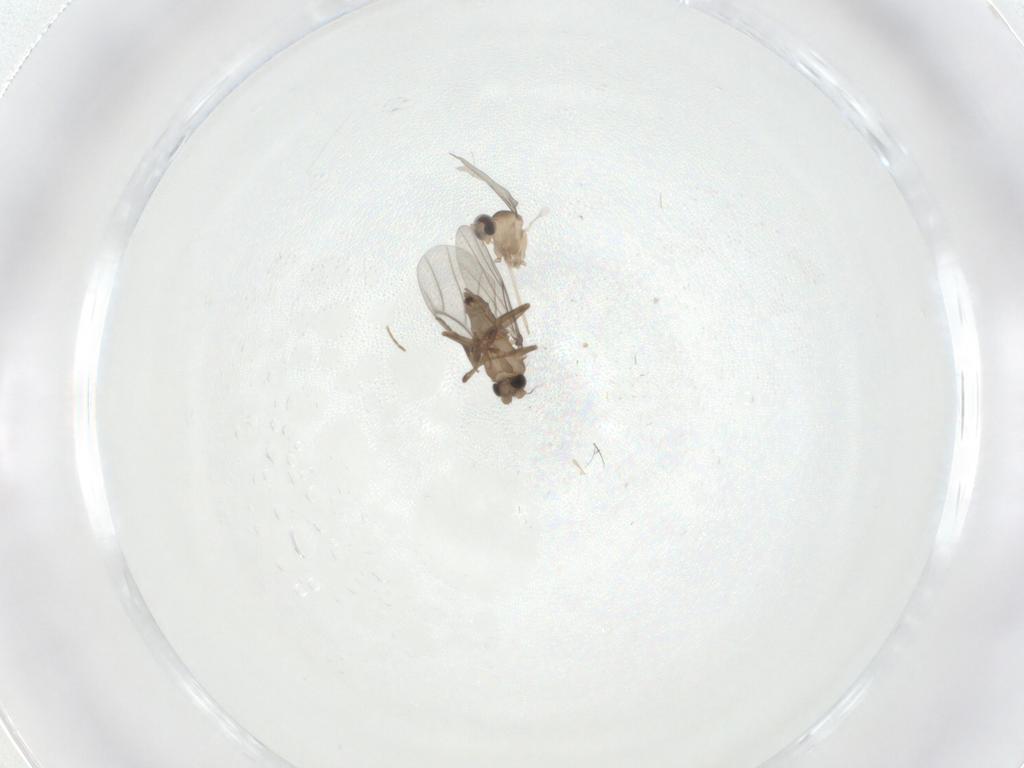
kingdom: Animalia
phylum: Arthropoda
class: Insecta
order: Diptera
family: Cecidomyiidae
